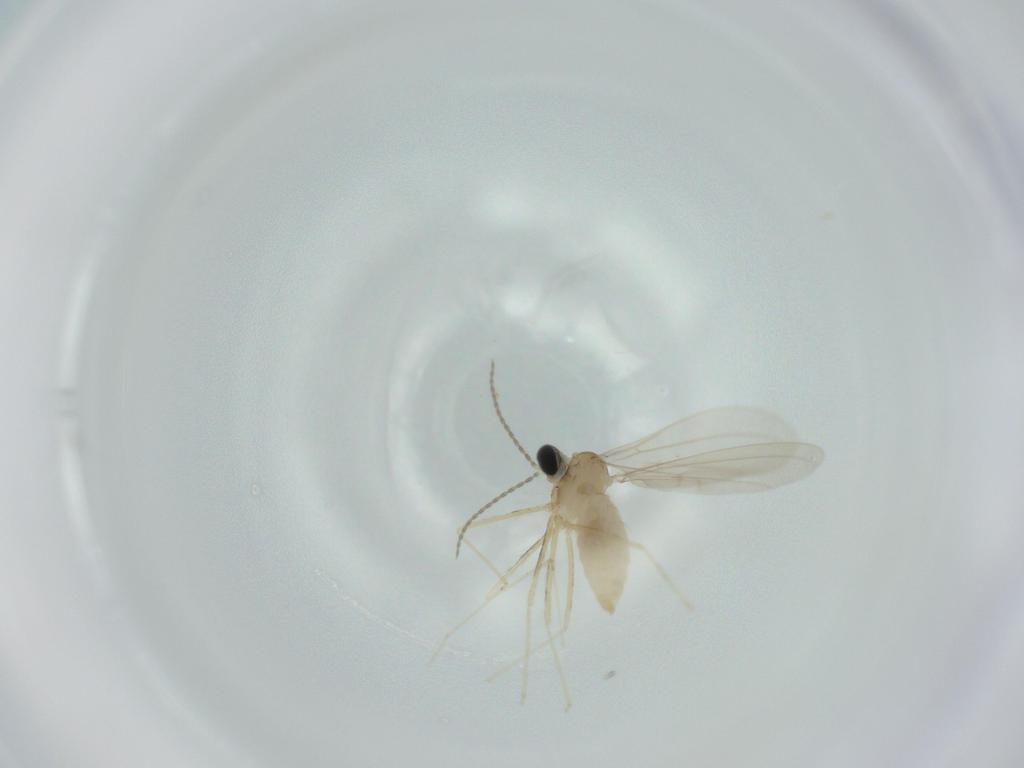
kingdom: Animalia
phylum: Arthropoda
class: Insecta
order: Diptera
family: Cecidomyiidae
